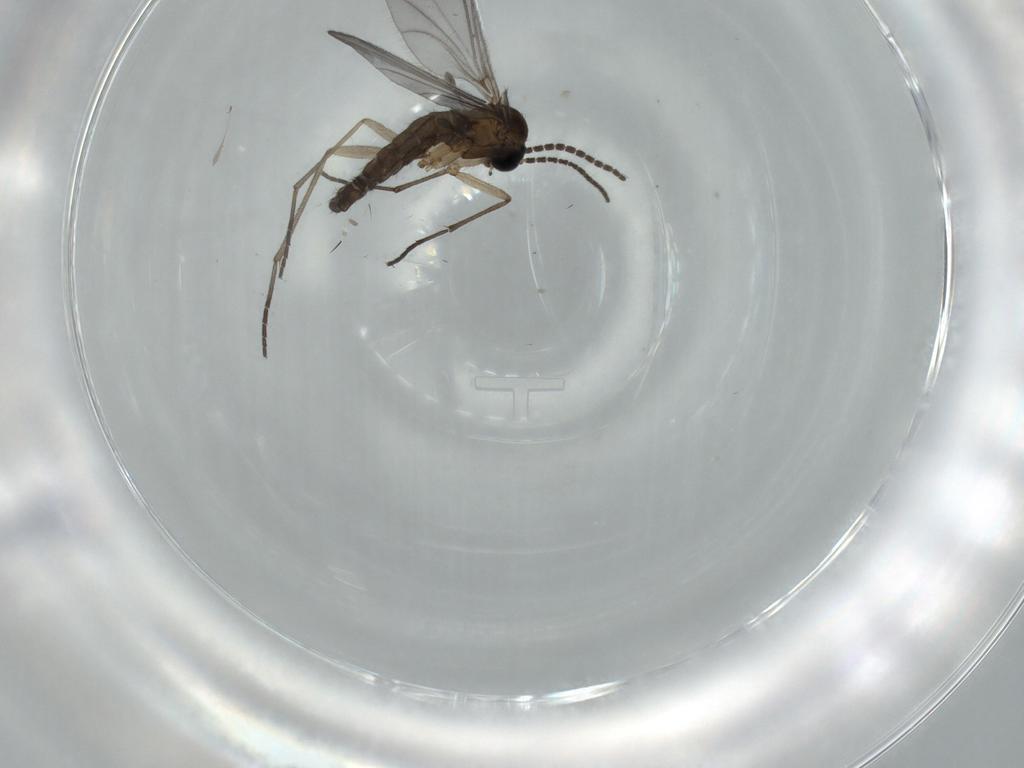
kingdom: Animalia
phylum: Arthropoda
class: Insecta
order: Diptera
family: Sciaridae
